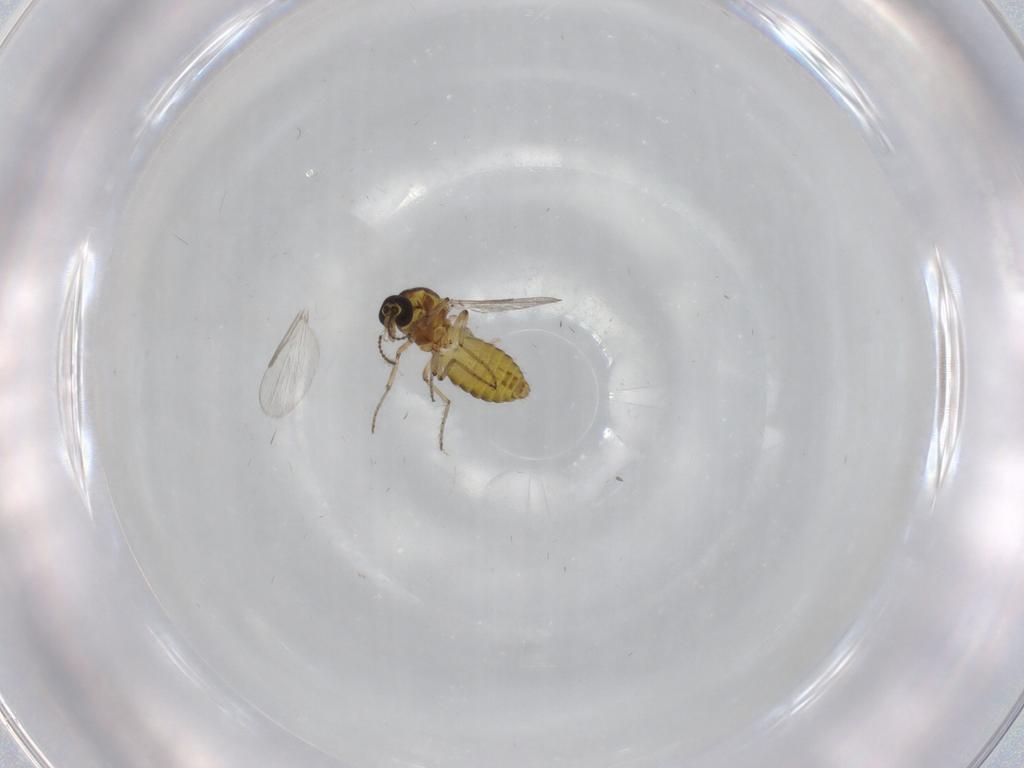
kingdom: Animalia
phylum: Arthropoda
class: Insecta
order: Diptera
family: Ceratopogonidae
